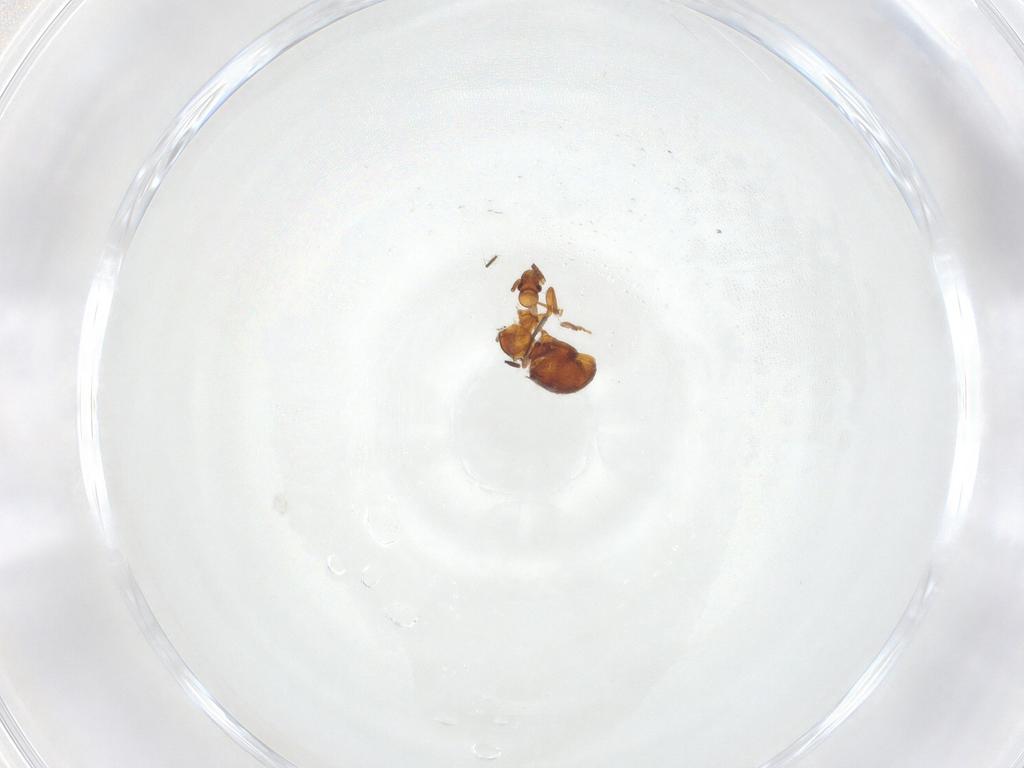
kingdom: Animalia
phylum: Arthropoda
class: Insecta
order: Coleoptera
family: Staphylinidae
